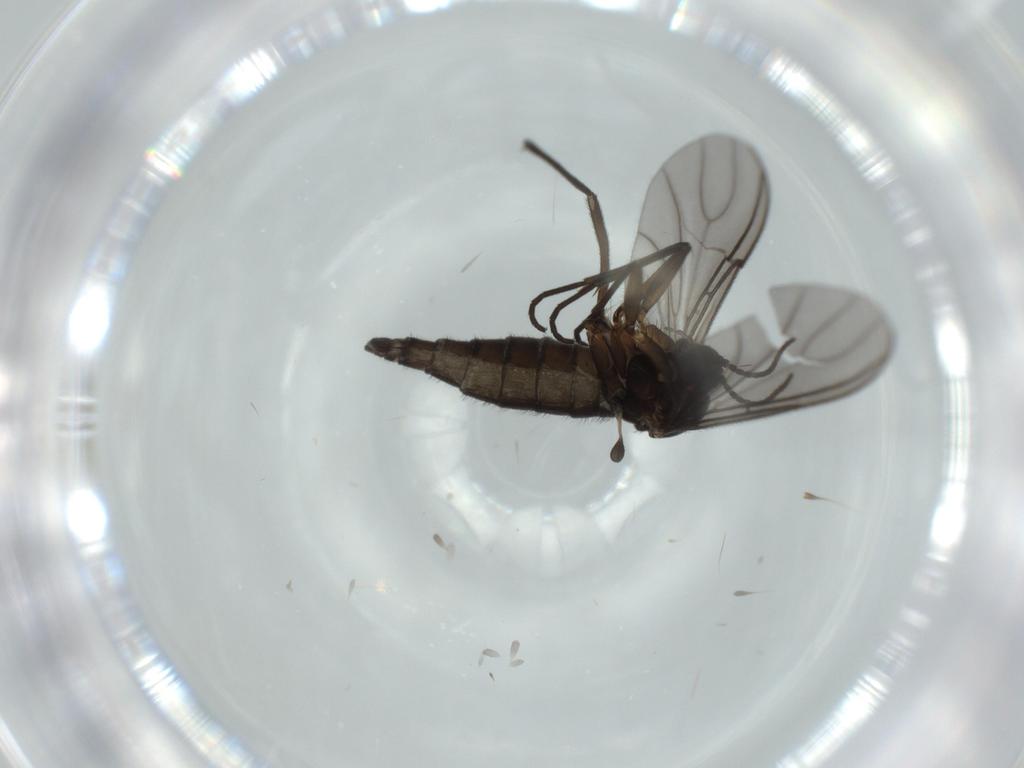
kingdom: Animalia
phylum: Arthropoda
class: Insecta
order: Diptera
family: Sciaridae
